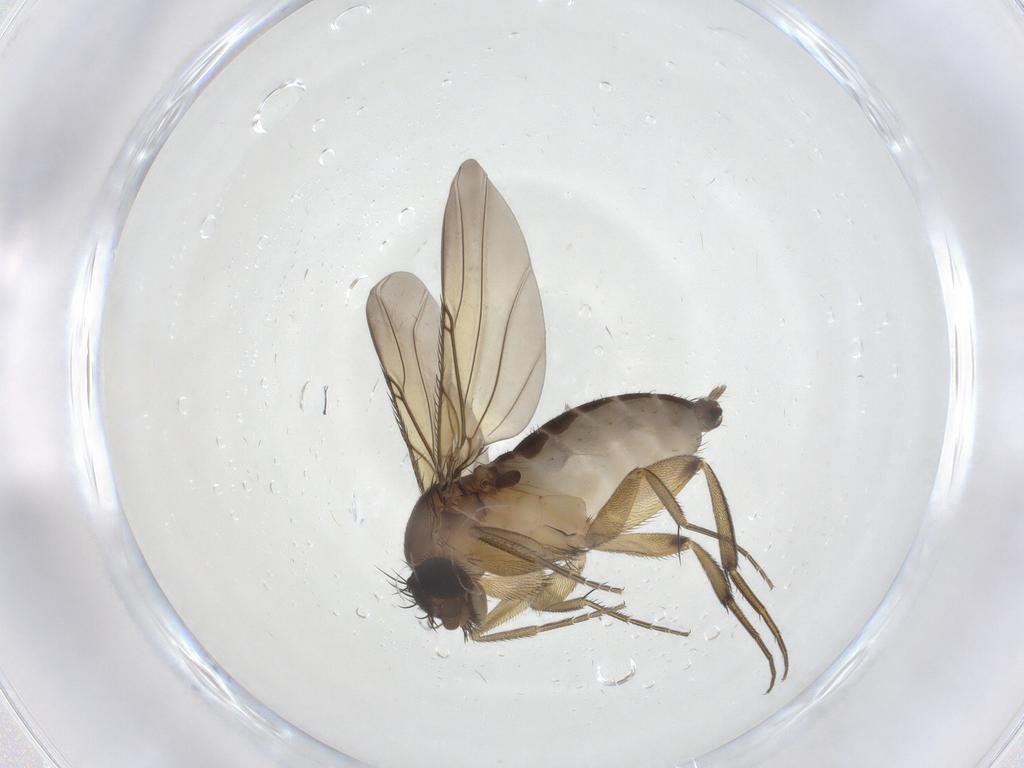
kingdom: Animalia
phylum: Arthropoda
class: Insecta
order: Diptera
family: Phoridae
